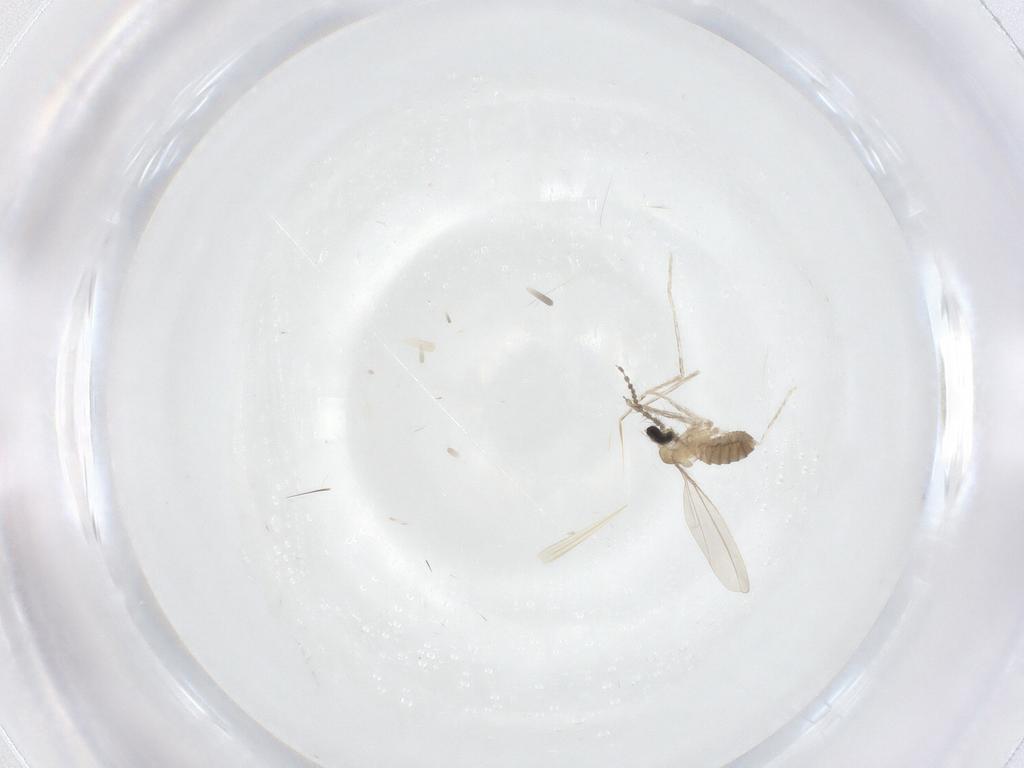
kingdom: Animalia
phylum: Arthropoda
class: Insecta
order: Diptera
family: Cecidomyiidae
